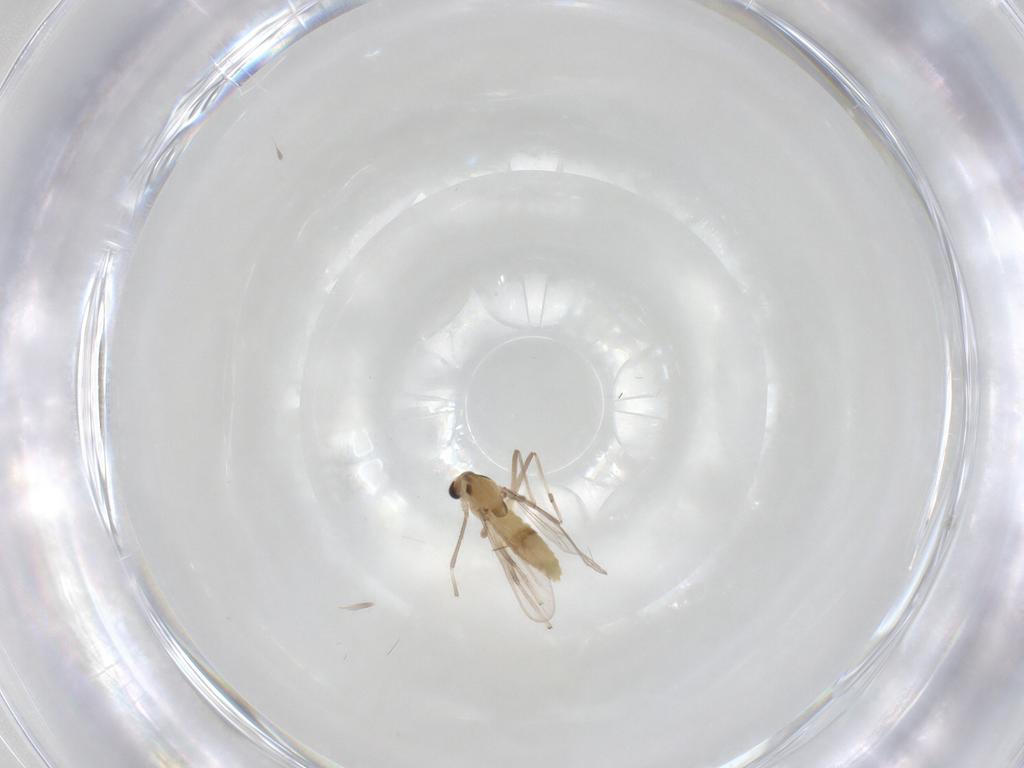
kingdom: Animalia
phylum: Arthropoda
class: Insecta
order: Diptera
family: Chironomidae
